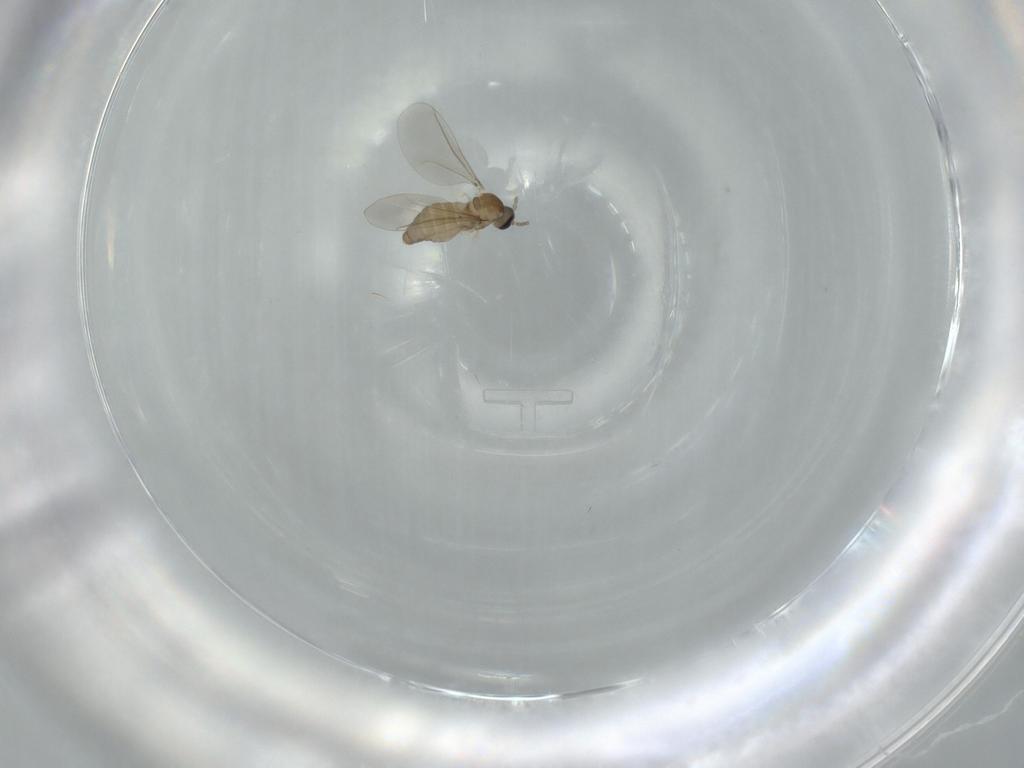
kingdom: Animalia
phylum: Arthropoda
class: Insecta
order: Diptera
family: Cecidomyiidae
